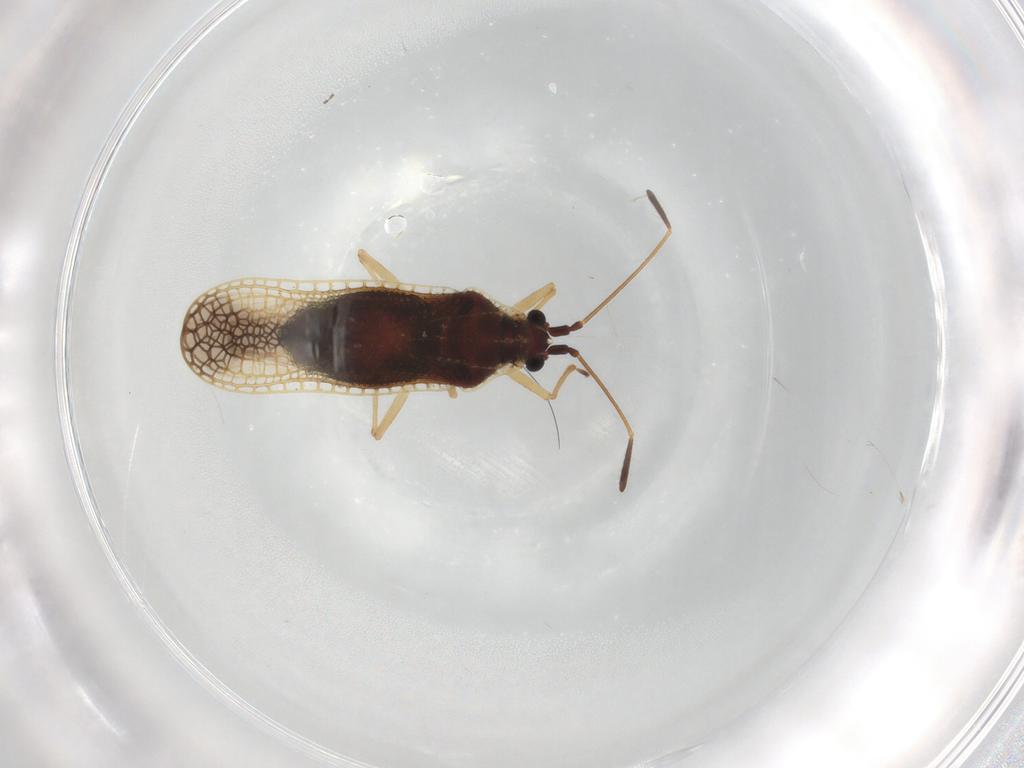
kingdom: Animalia
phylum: Arthropoda
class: Insecta
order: Hemiptera
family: Tingidae
